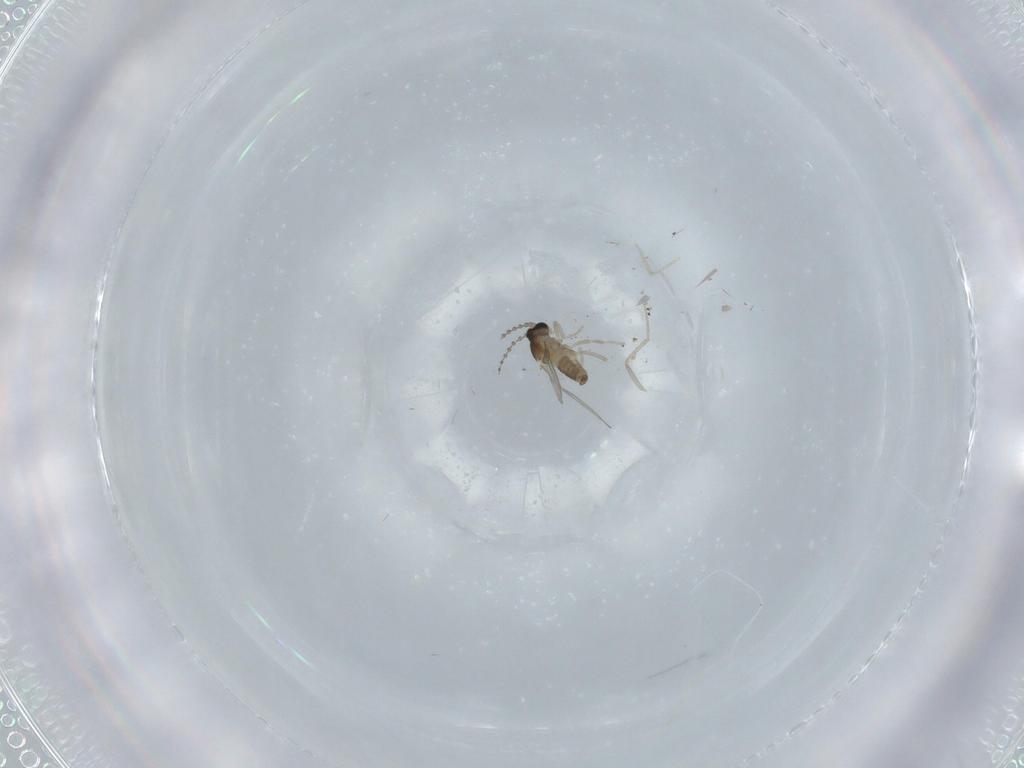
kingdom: Animalia
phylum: Arthropoda
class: Insecta
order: Diptera
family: Cecidomyiidae
